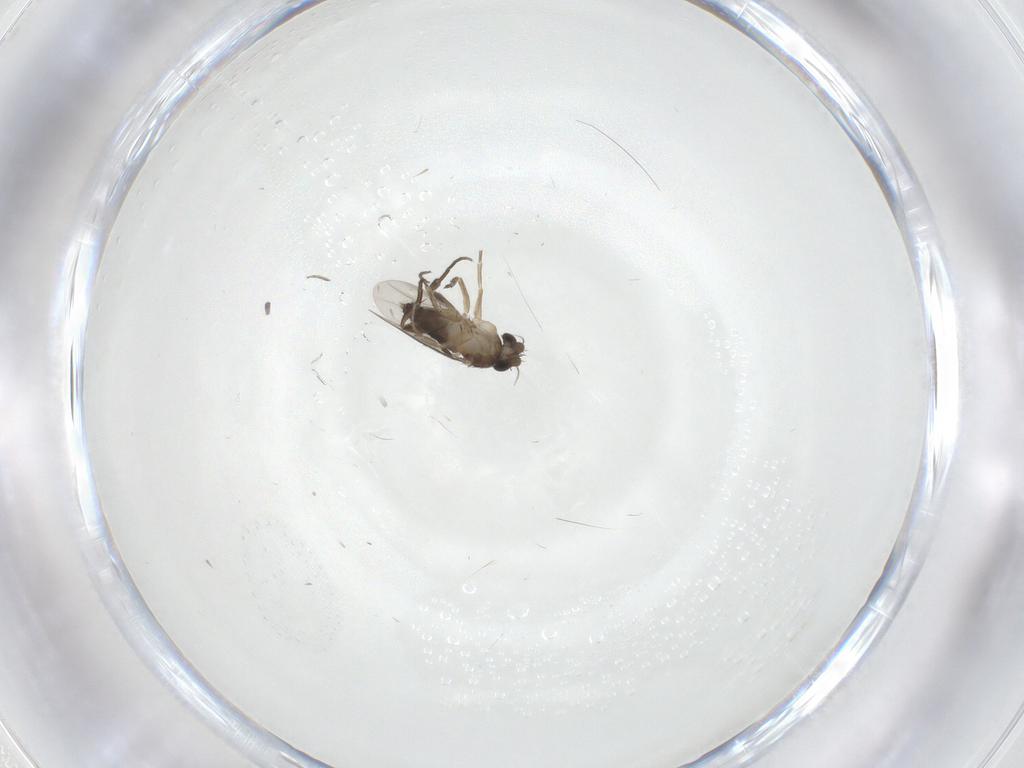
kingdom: Animalia
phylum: Arthropoda
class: Insecta
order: Diptera
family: Phoridae
